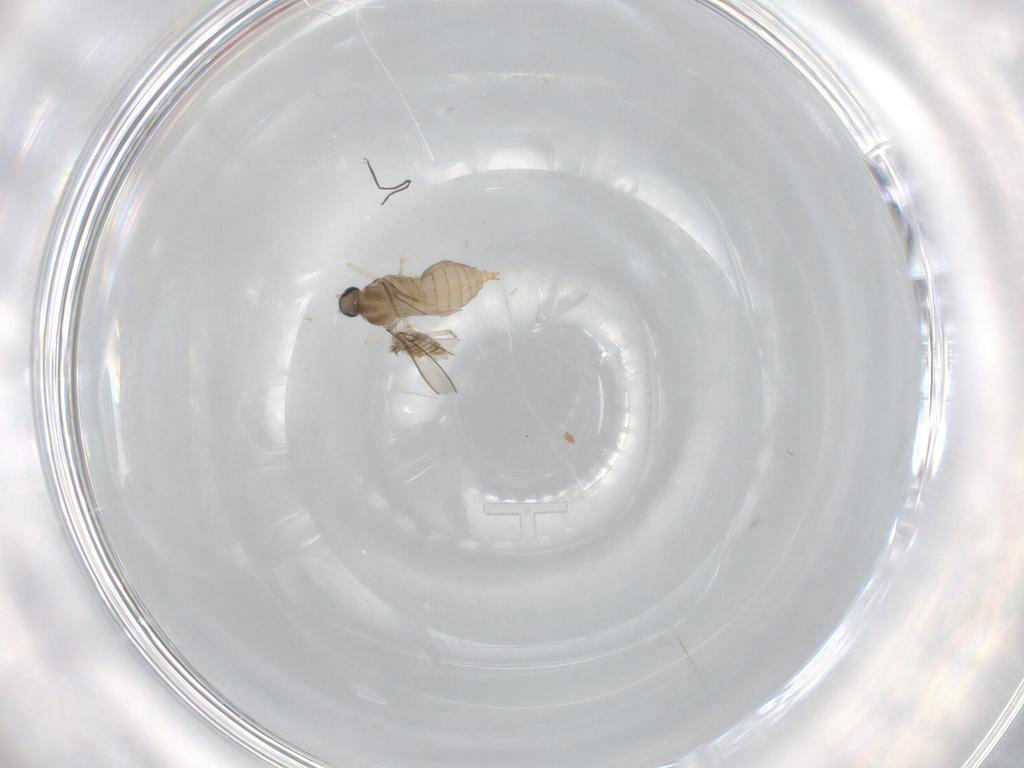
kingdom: Animalia
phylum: Arthropoda
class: Insecta
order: Diptera
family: Cecidomyiidae
